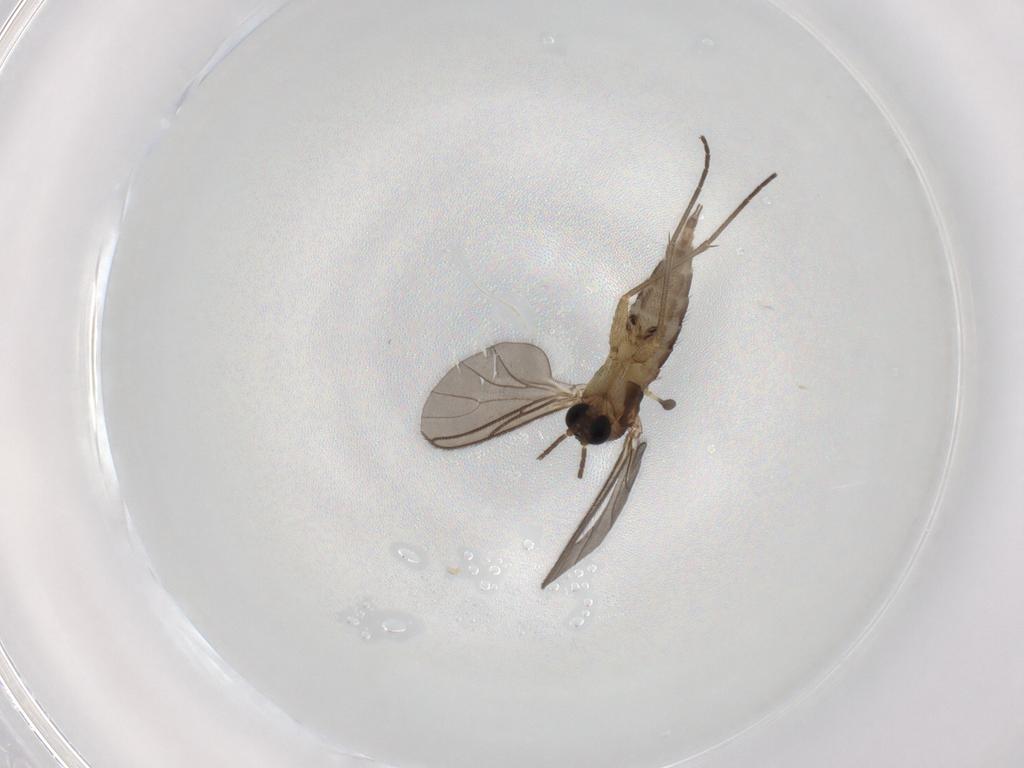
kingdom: Animalia
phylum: Arthropoda
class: Insecta
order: Diptera
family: Sciaridae
